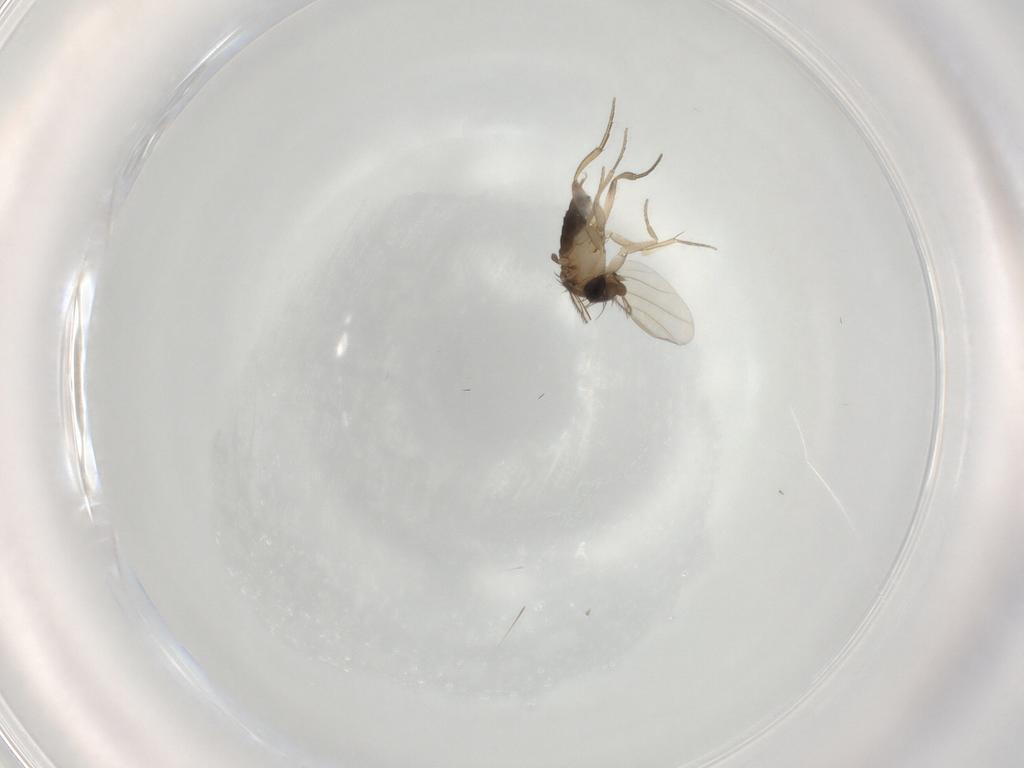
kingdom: Animalia
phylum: Arthropoda
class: Insecta
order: Diptera
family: Phoridae
